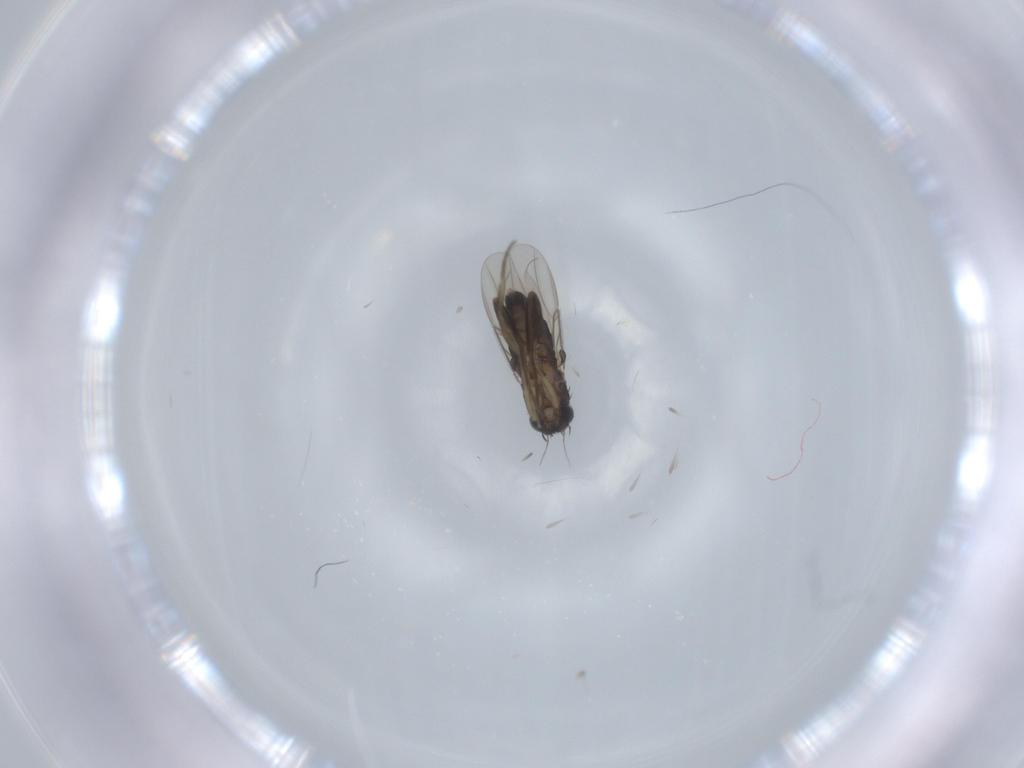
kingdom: Animalia
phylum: Arthropoda
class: Insecta
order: Diptera
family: Phoridae
